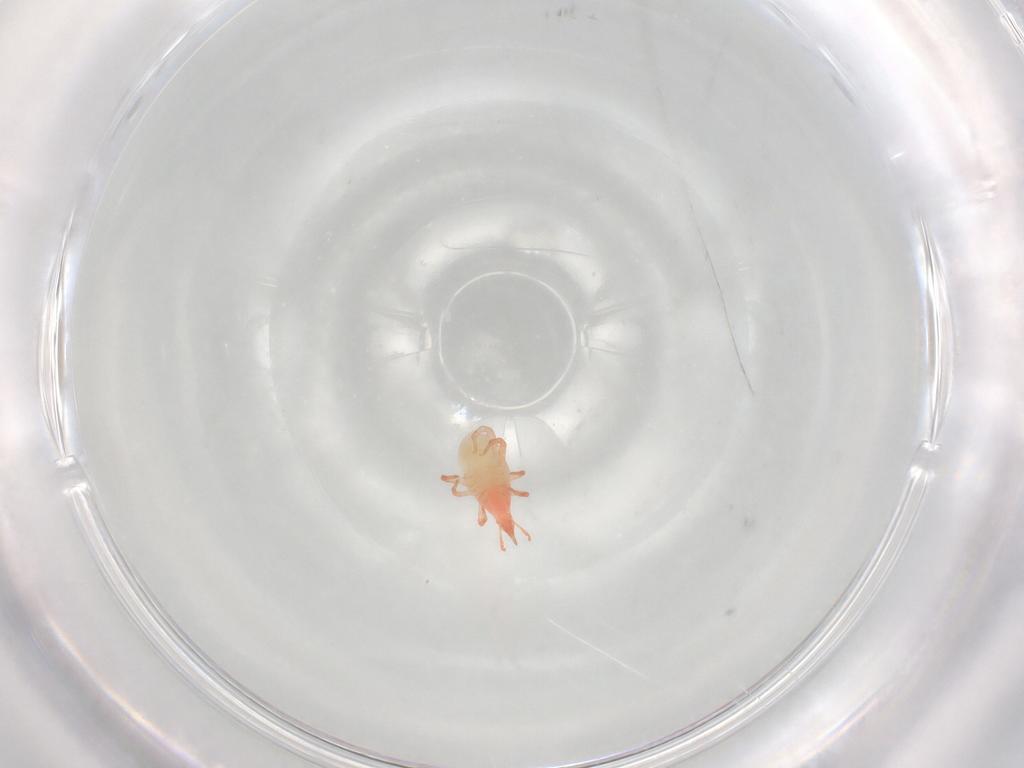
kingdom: Animalia
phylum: Arthropoda
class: Arachnida
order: Trombidiformes
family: Bdellidae
